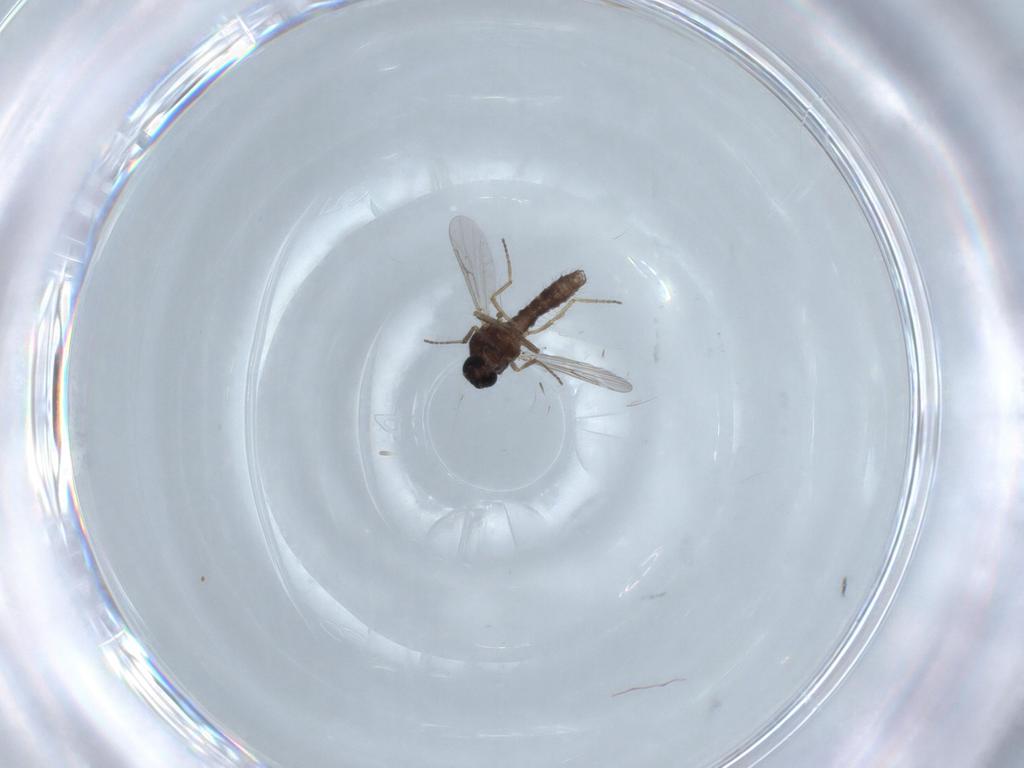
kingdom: Animalia
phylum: Arthropoda
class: Insecta
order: Diptera
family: Ceratopogonidae
